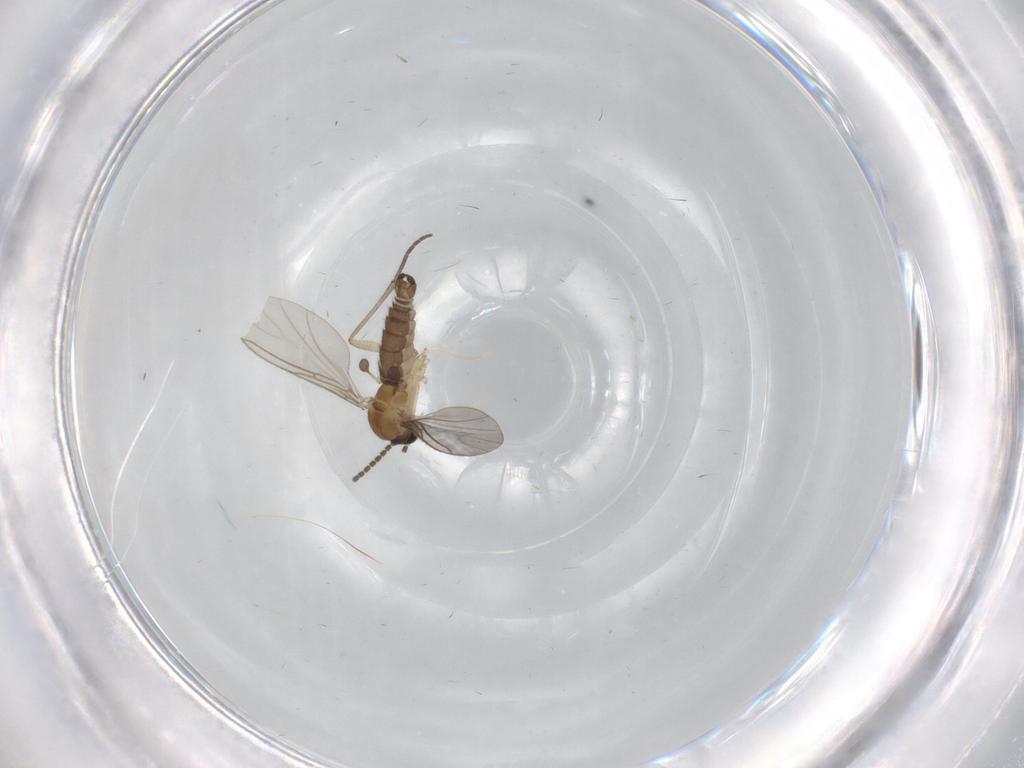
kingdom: Animalia
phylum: Arthropoda
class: Insecta
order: Diptera
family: Sciaridae
